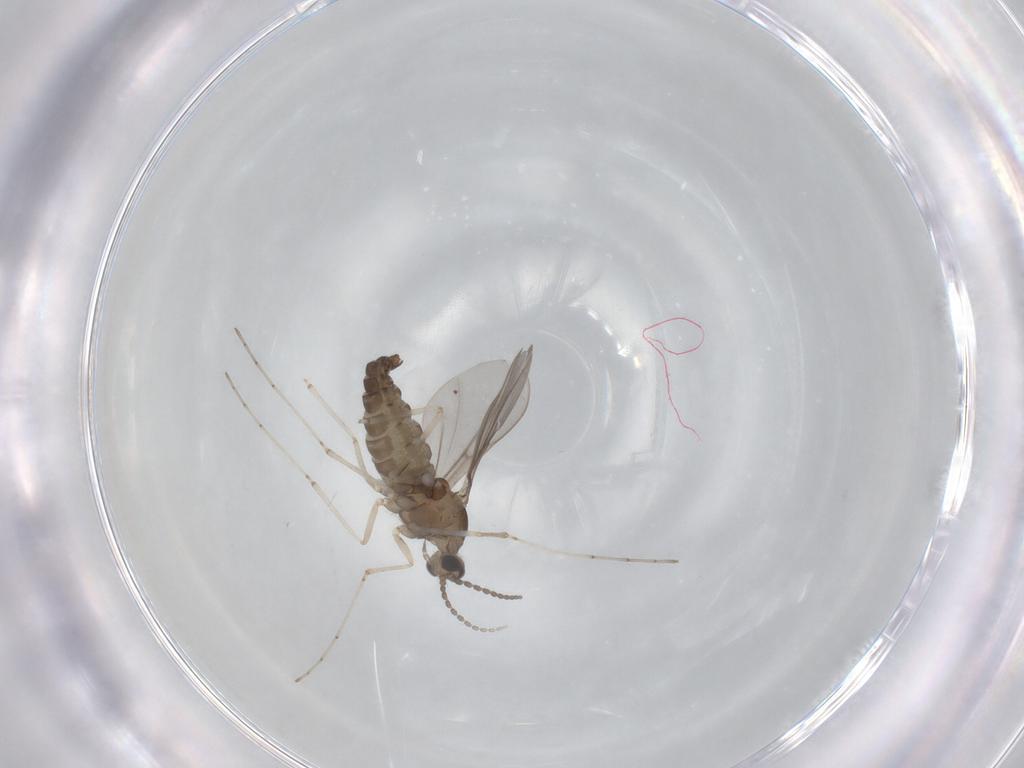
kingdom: Animalia
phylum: Arthropoda
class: Insecta
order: Diptera
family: Cecidomyiidae
